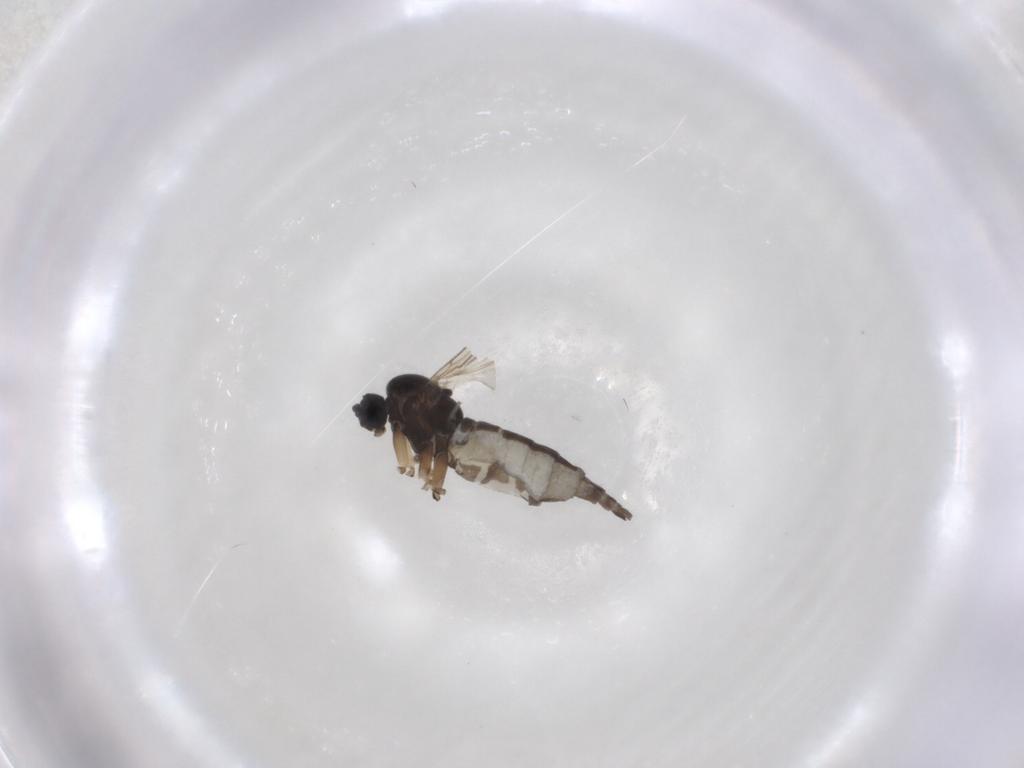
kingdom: Animalia
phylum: Arthropoda
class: Insecta
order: Diptera
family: Sciaridae
